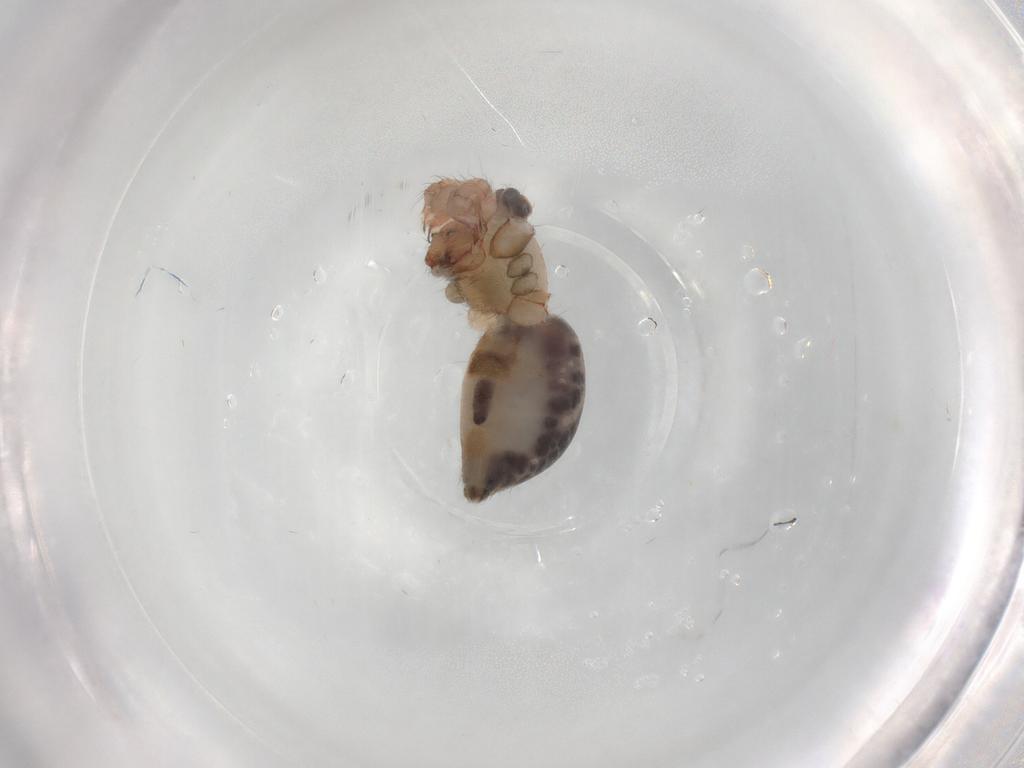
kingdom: Animalia
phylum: Arthropoda
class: Arachnida
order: Araneae
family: Pholcidae
